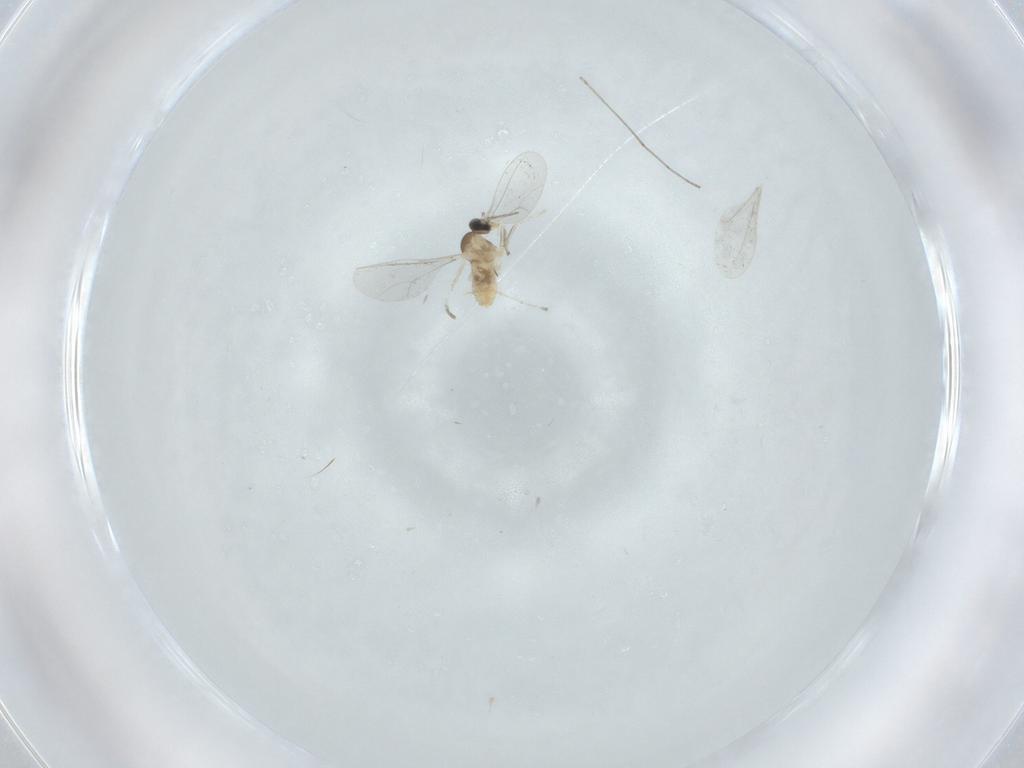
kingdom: Animalia
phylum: Arthropoda
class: Insecta
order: Diptera
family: Cecidomyiidae
